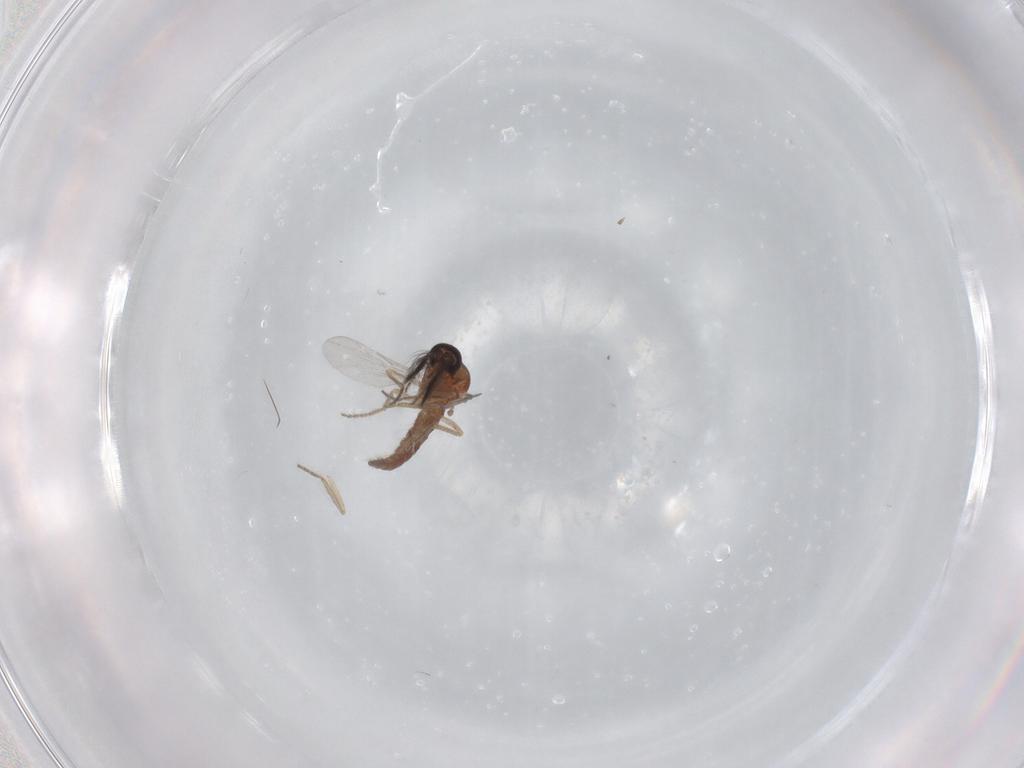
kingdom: Animalia
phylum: Arthropoda
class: Insecta
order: Diptera
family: Ceratopogonidae
